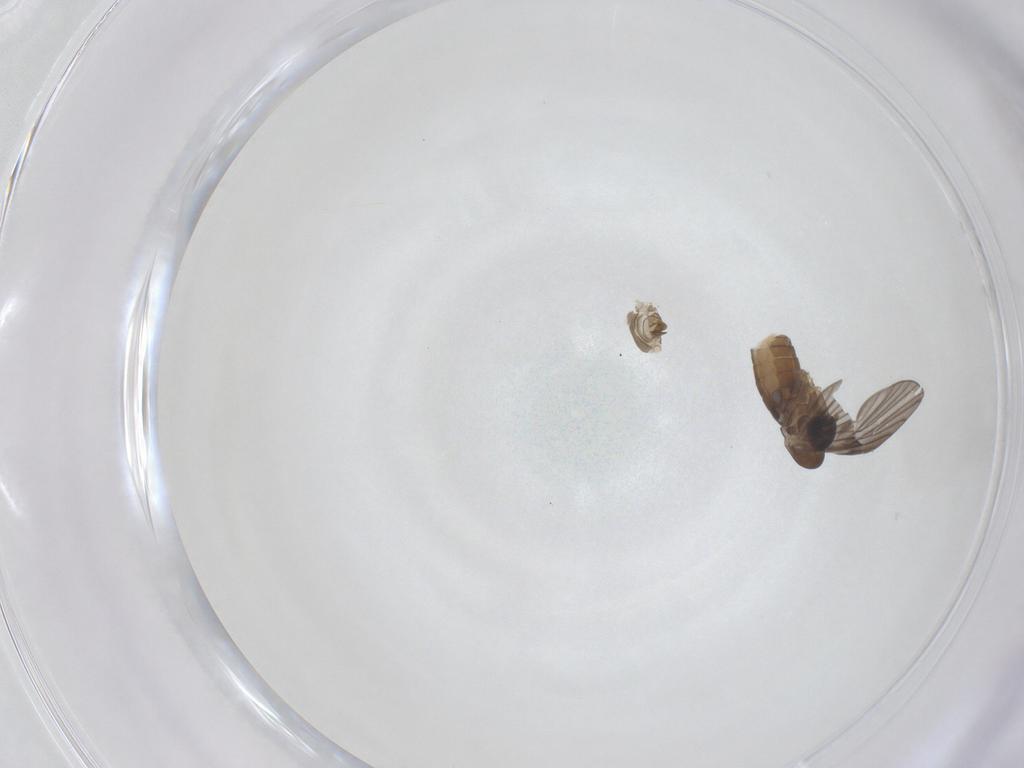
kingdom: Animalia
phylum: Arthropoda
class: Insecta
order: Diptera
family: Psychodidae
